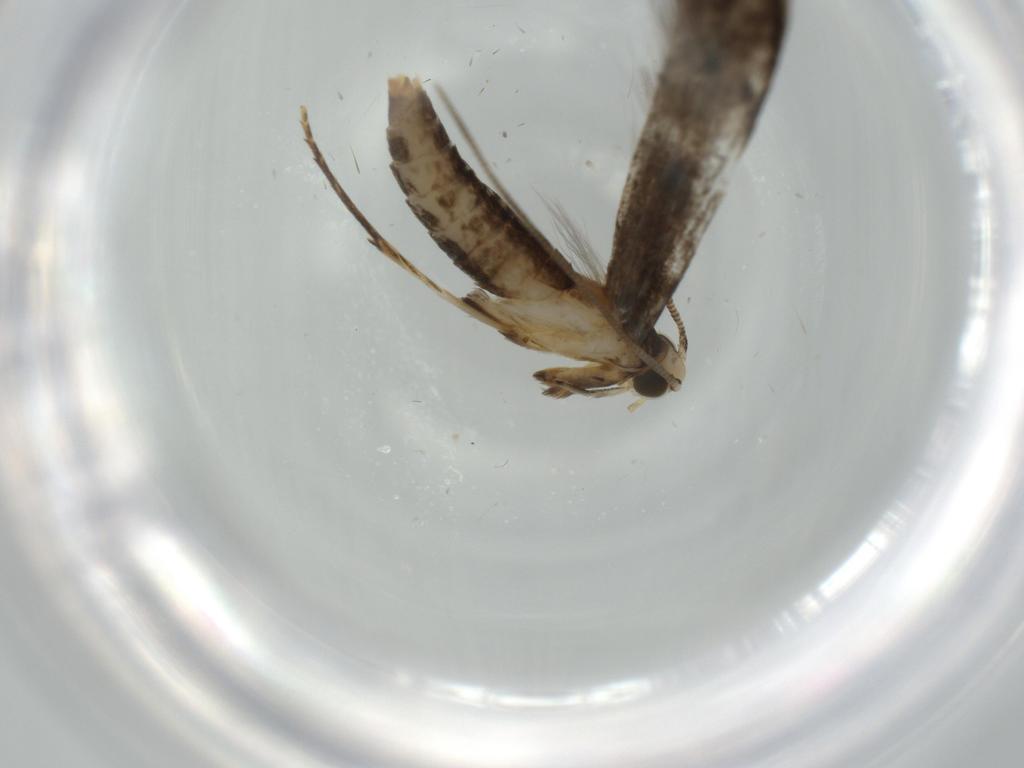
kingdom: Animalia
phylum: Arthropoda
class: Insecta
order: Lepidoptera
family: Tineidae
